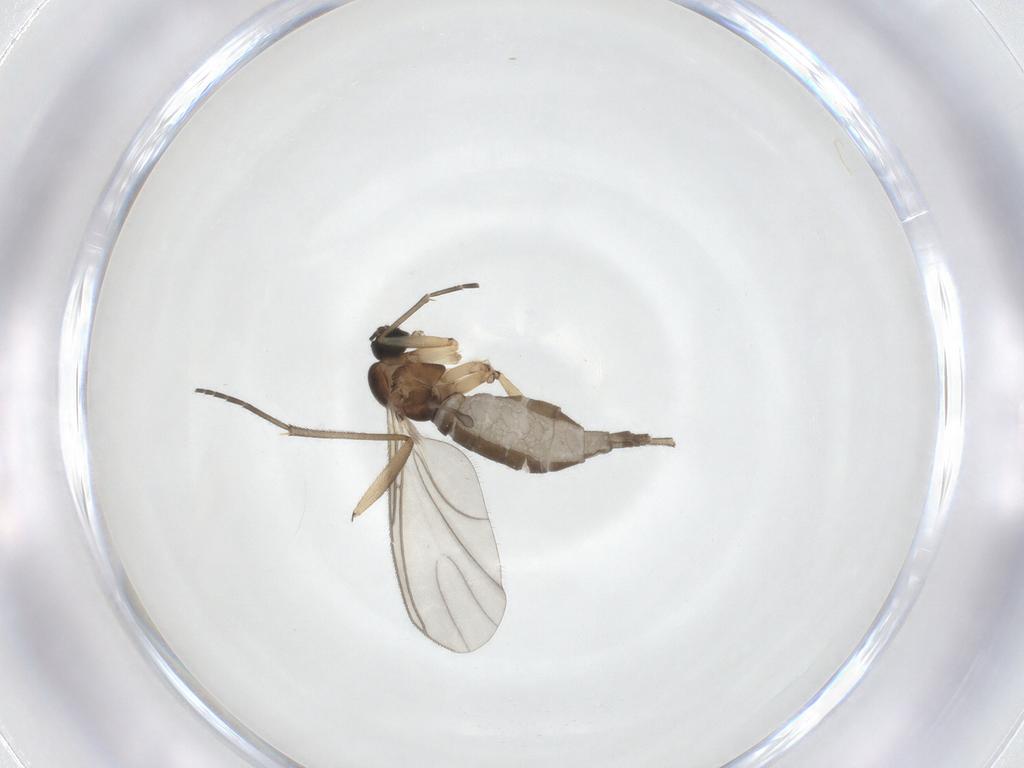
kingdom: Animalia
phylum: Arthropoda
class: Insecta
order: Diptera
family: Sciaridae
